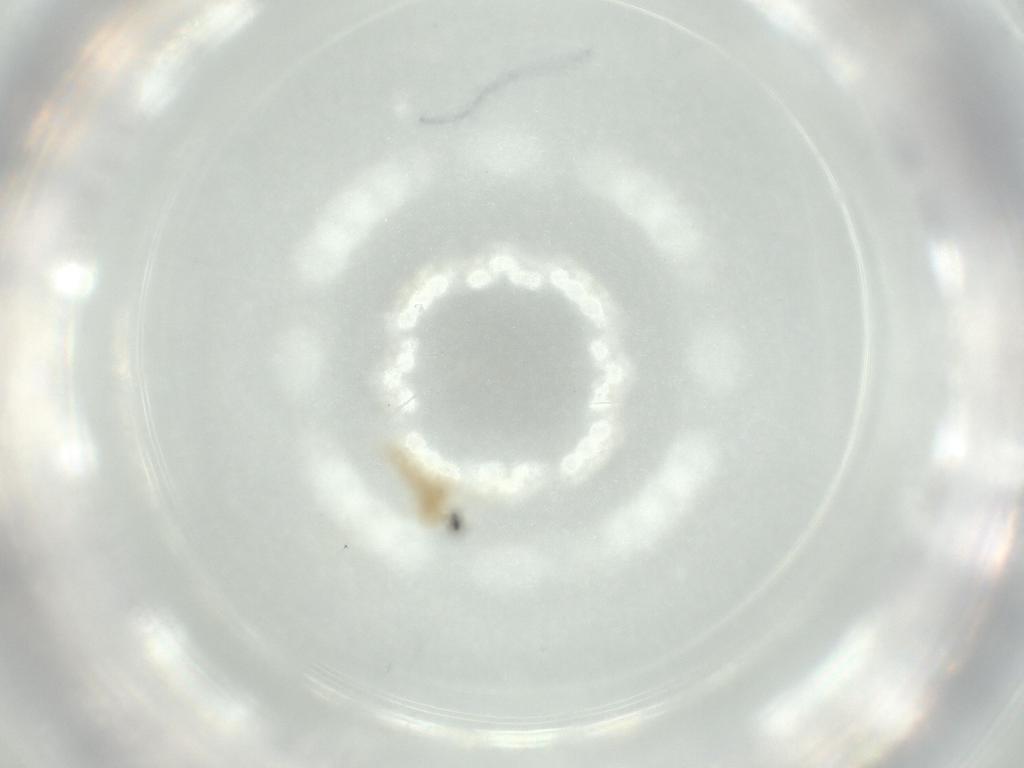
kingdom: Animalia
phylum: Arthropoda
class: Insecta
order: Diptera
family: Cecidomyiidae
